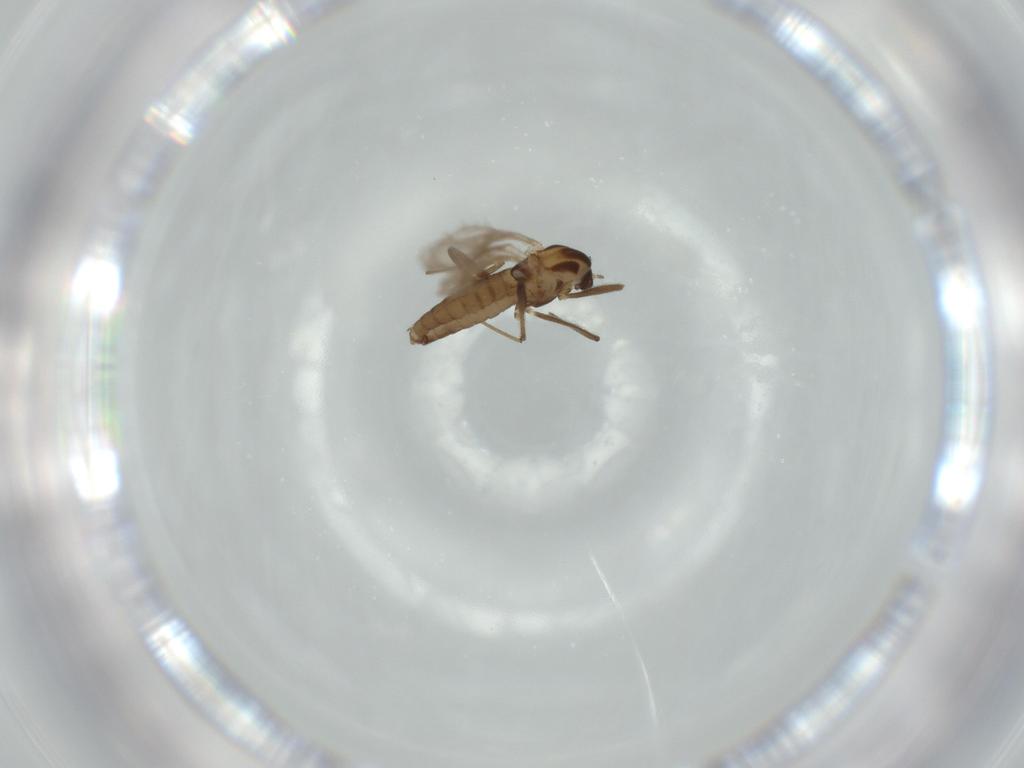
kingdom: Animalia
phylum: Arthropoda
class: Insecta
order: Diptera
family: Chironomidae
